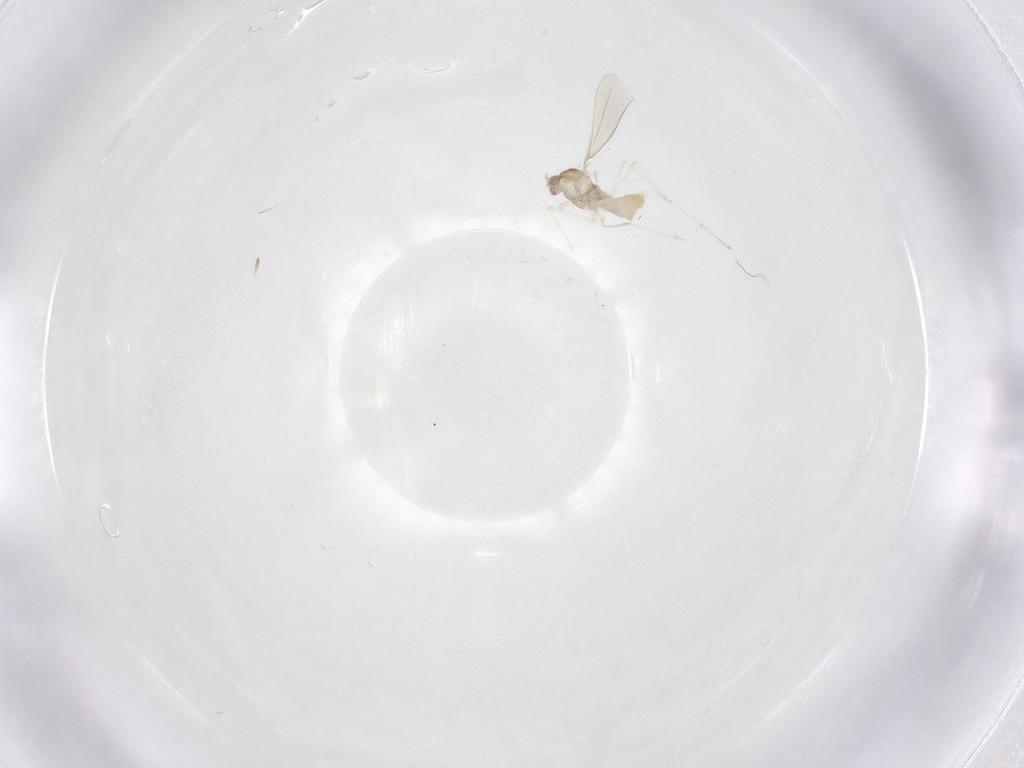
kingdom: Animalia
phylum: Arthropoda
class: Insecta
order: Diptera
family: Cecidomyiidae
